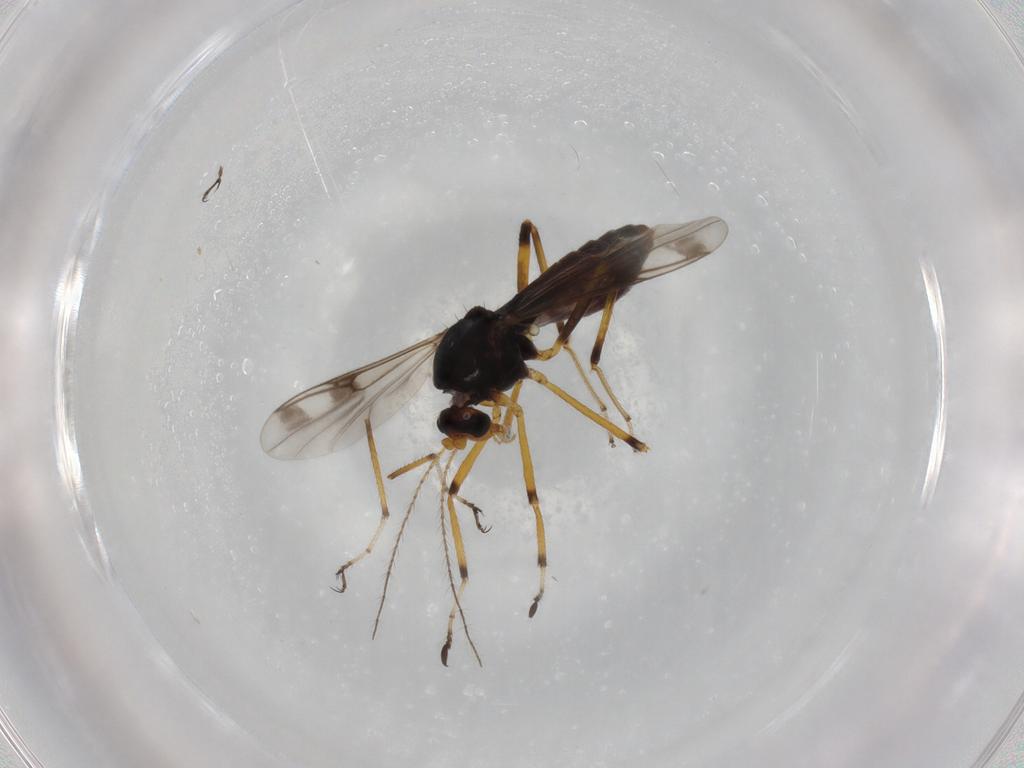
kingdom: Animalia
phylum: Arthropoda
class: Insecta
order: Diptera
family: Chironomidae
